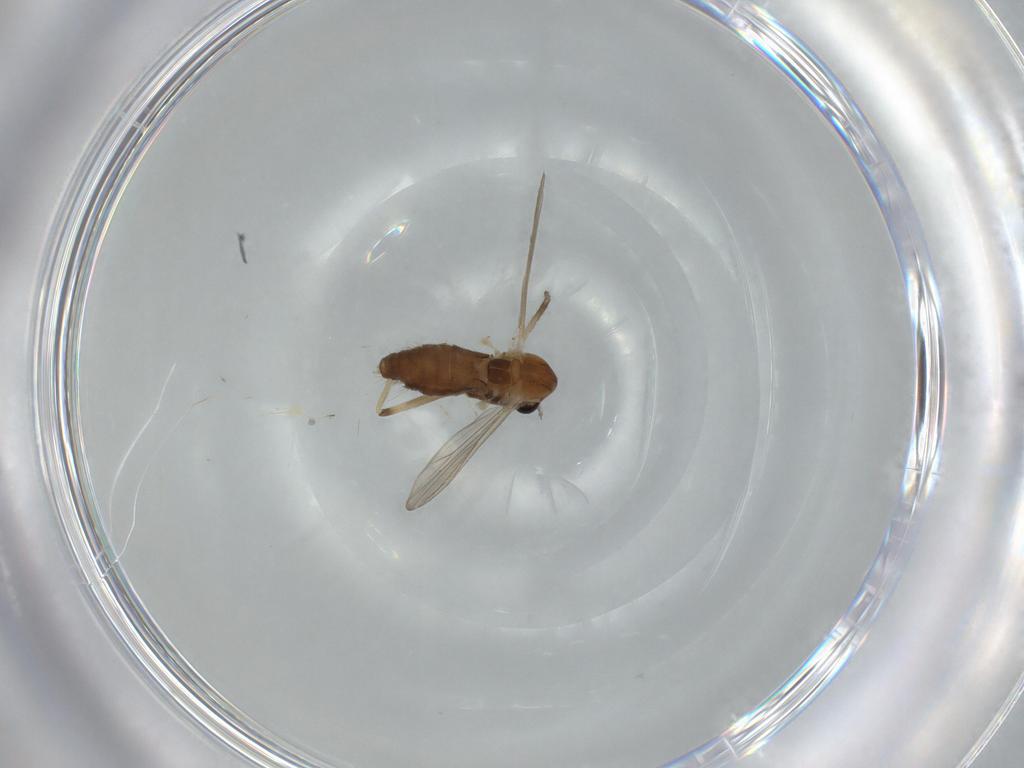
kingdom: Animalia
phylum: Arthropoda
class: Insecta
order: Diptera
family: Chironomidae
